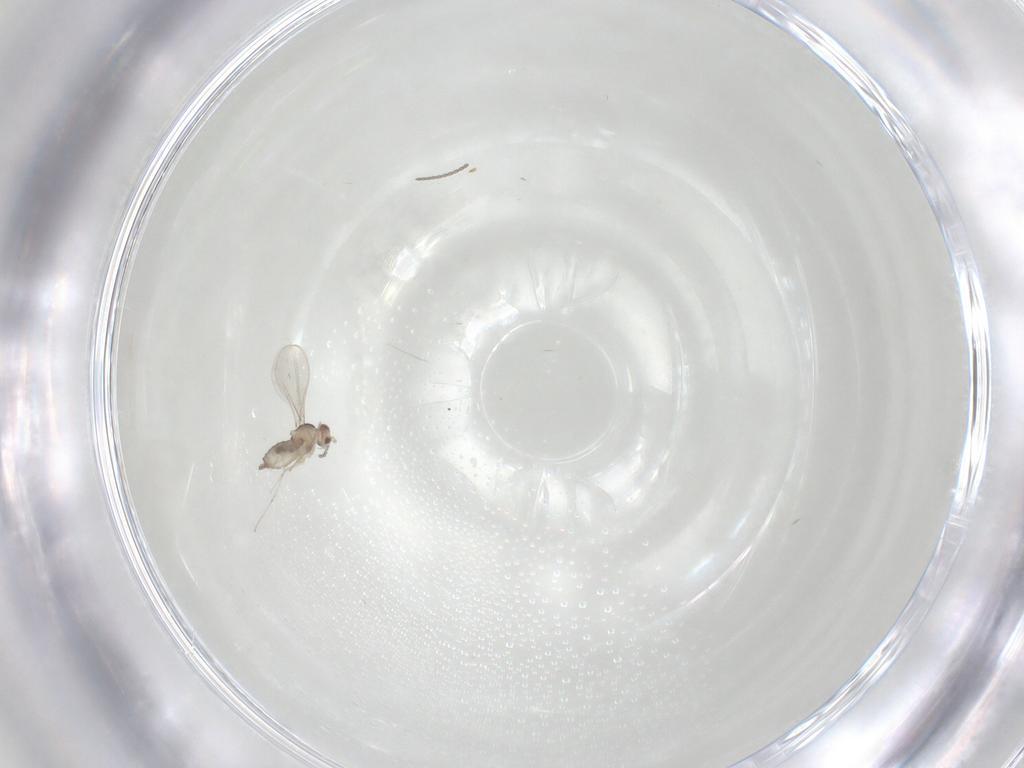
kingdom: Animalia
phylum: Arthropoda
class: Insecta
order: Diptera
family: Cecidomyiidae
